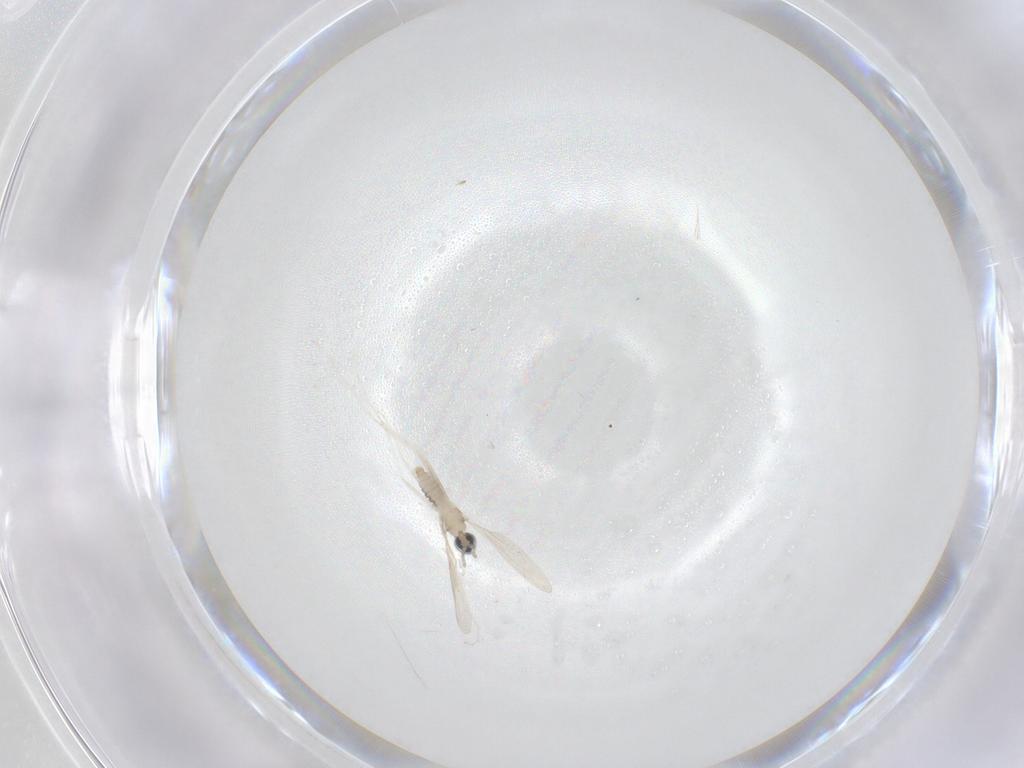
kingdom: Animalia
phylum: Arthropoda
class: Insecta
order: Diptera
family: Cecidomyiidae
